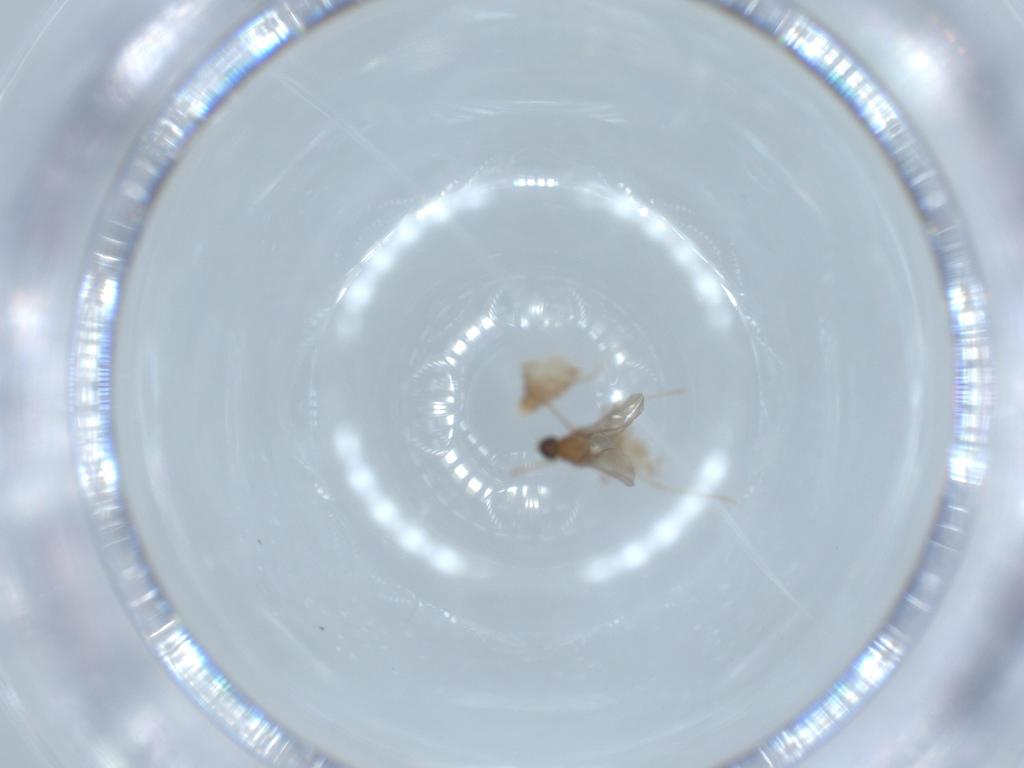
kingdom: Animalia
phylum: Arthropoda
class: Insecta
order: Diptera
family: Cecidomyiidae
